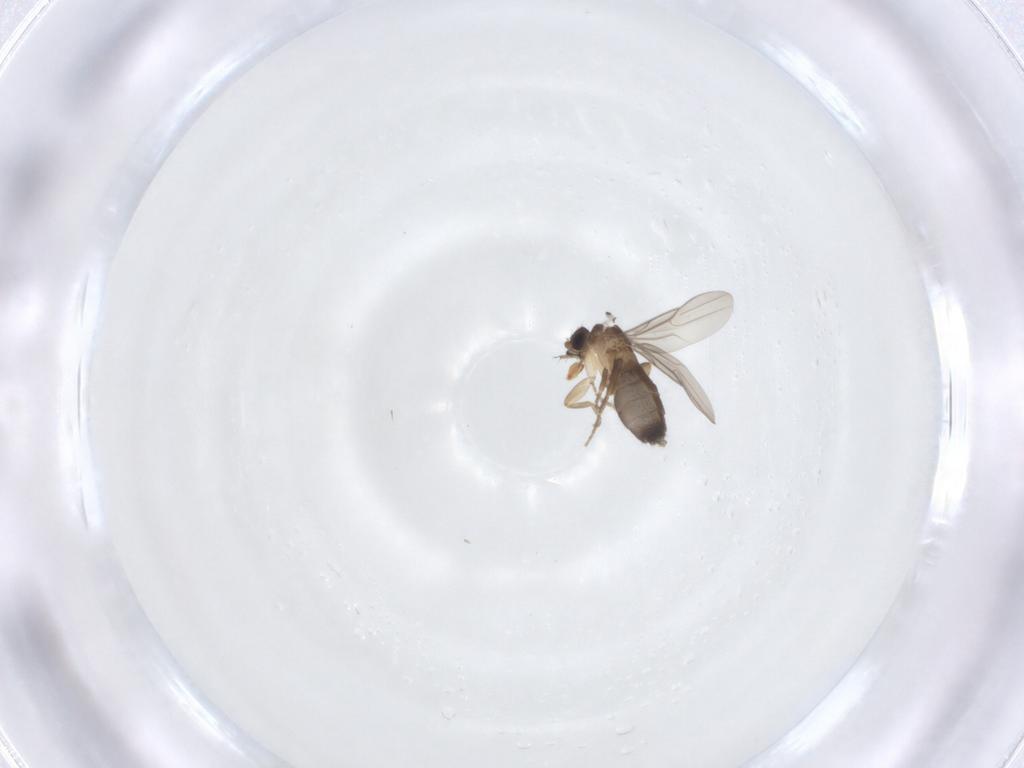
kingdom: Animalia
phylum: Arthropoda
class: Insecta
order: Diptera
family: Phoridae
